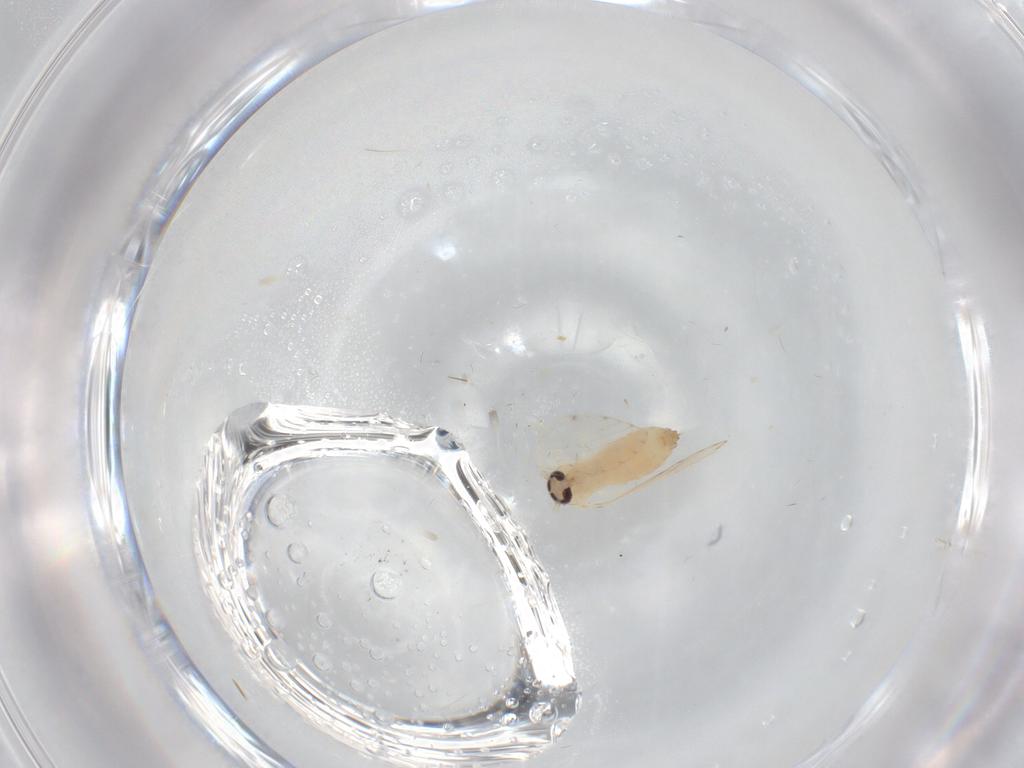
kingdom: Animalia
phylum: Arthropoda
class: Insecta
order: Diptera
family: Psychodidae
